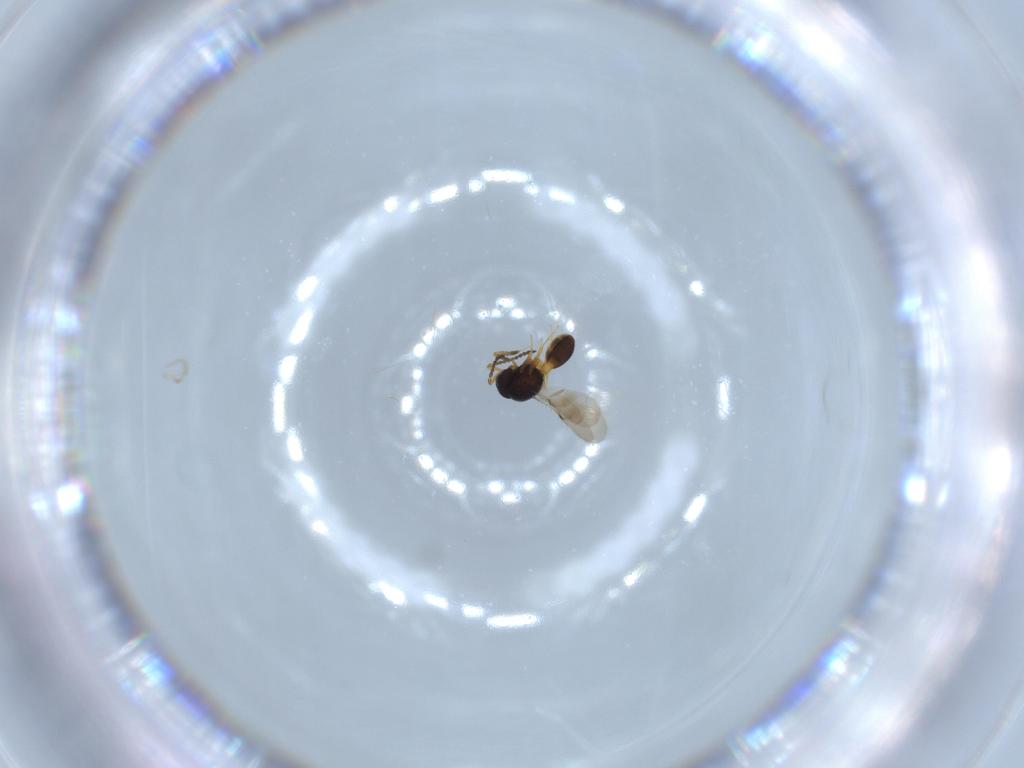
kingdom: Animalia
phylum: Arthropoda
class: Insecta
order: Hymenoptera
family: Scelionidae
